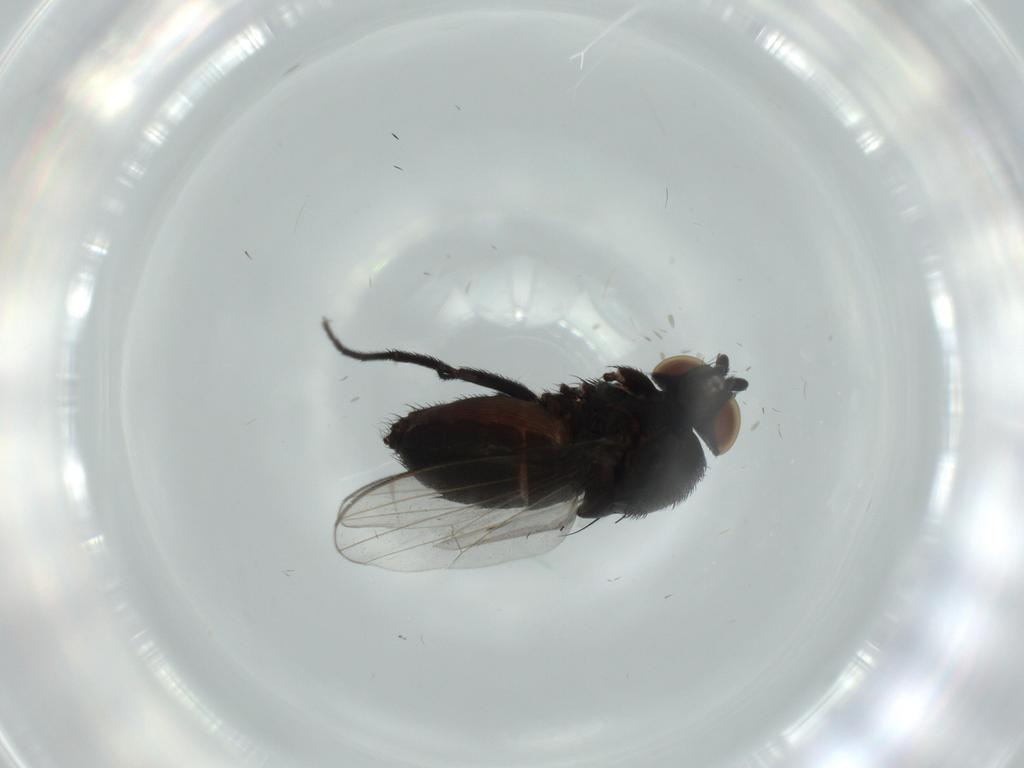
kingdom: Animalia
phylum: Arthropoda
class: Insecta
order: Diptera
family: Milichiidae
